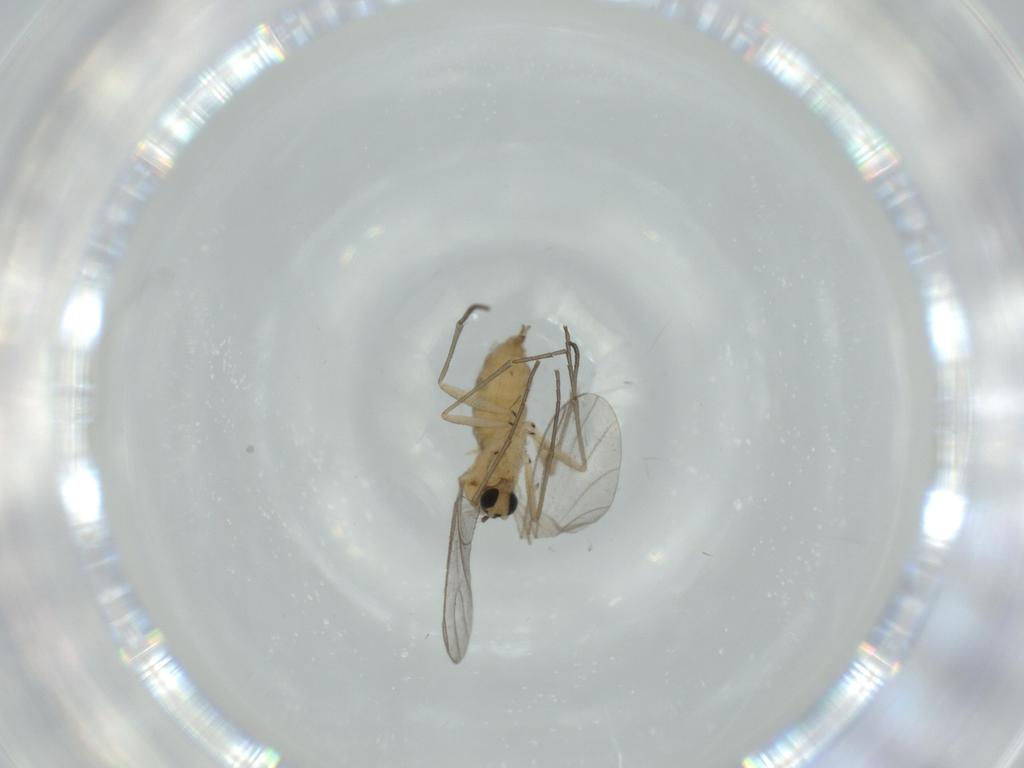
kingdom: Animalia
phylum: Arthropoda
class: Insecta
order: Diptera
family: Sciaridae
